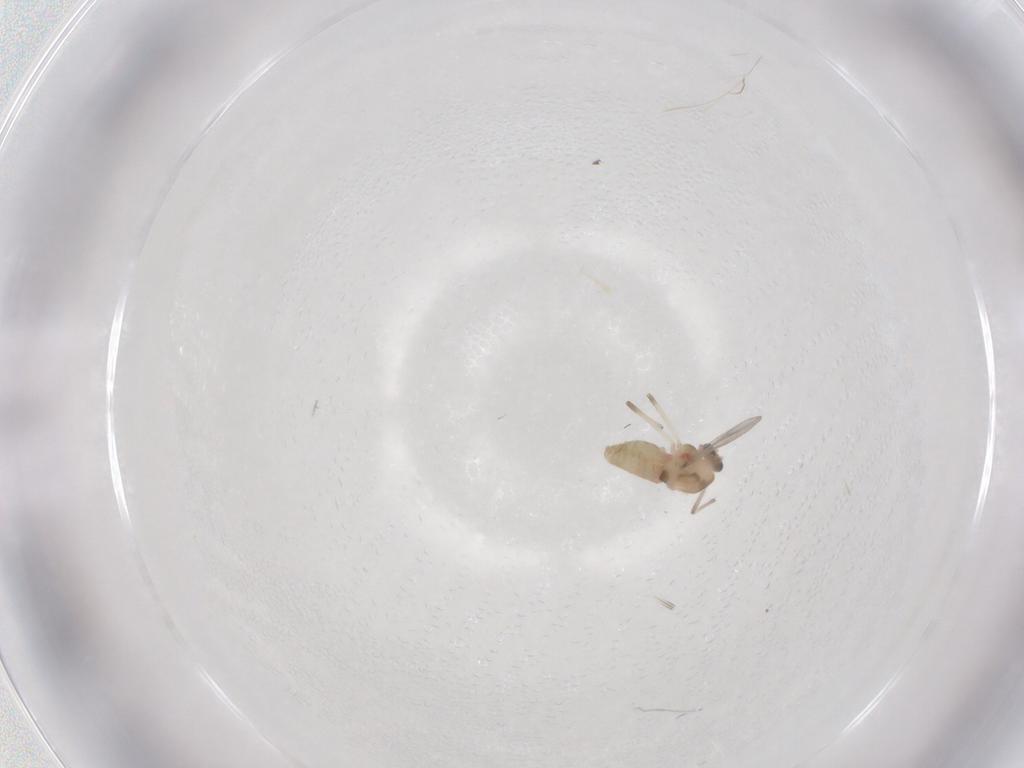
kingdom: Animalia
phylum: Arthropoda
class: Insecta
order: Diptera
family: Chironomidae
